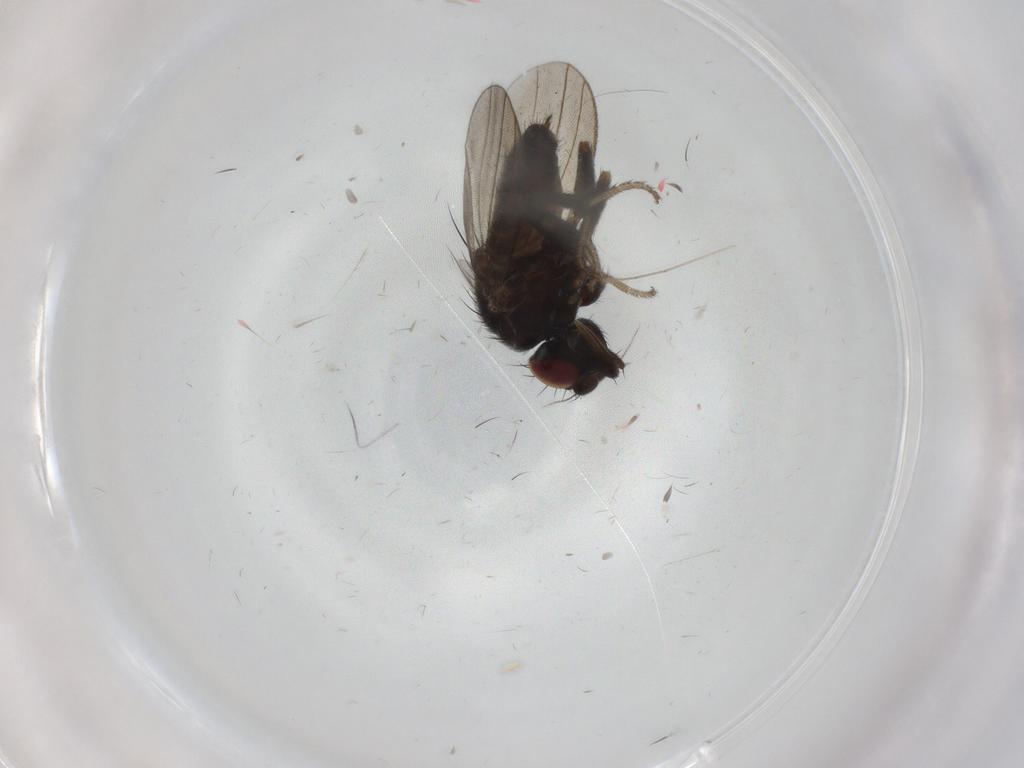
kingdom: Animalia
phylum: Arthropoda
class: Insecta
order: Diptera
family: Milichiidae
